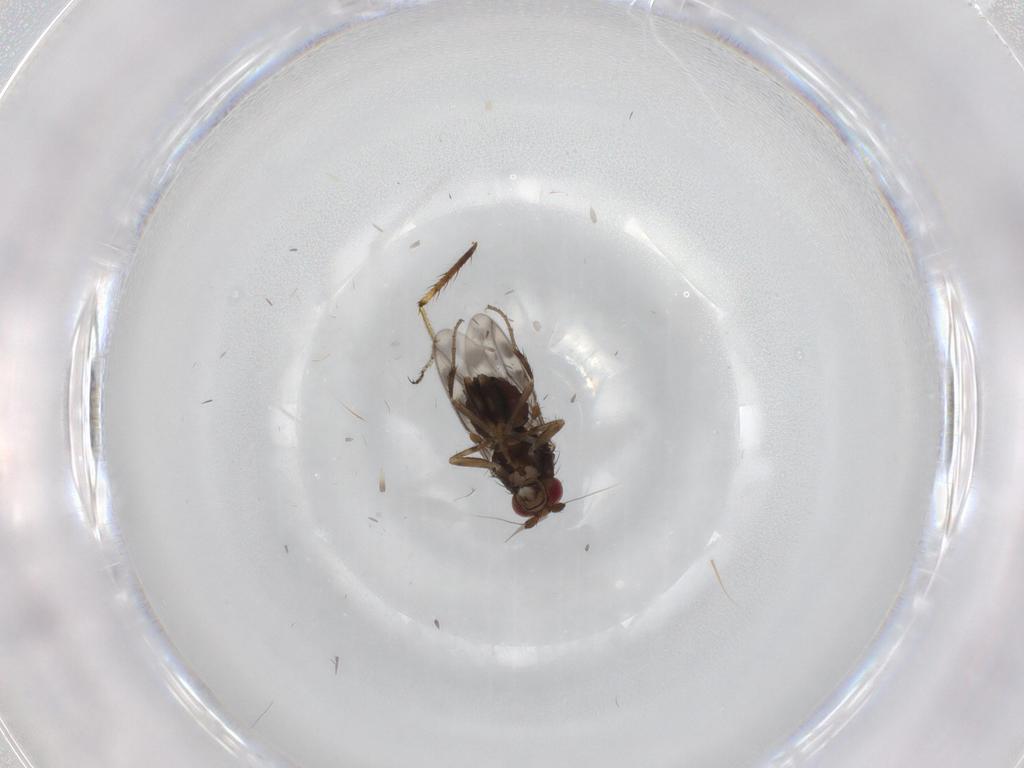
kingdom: Animalia
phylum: Arthropoda
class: Insecta
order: Diptera
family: Sphaeroceridae
